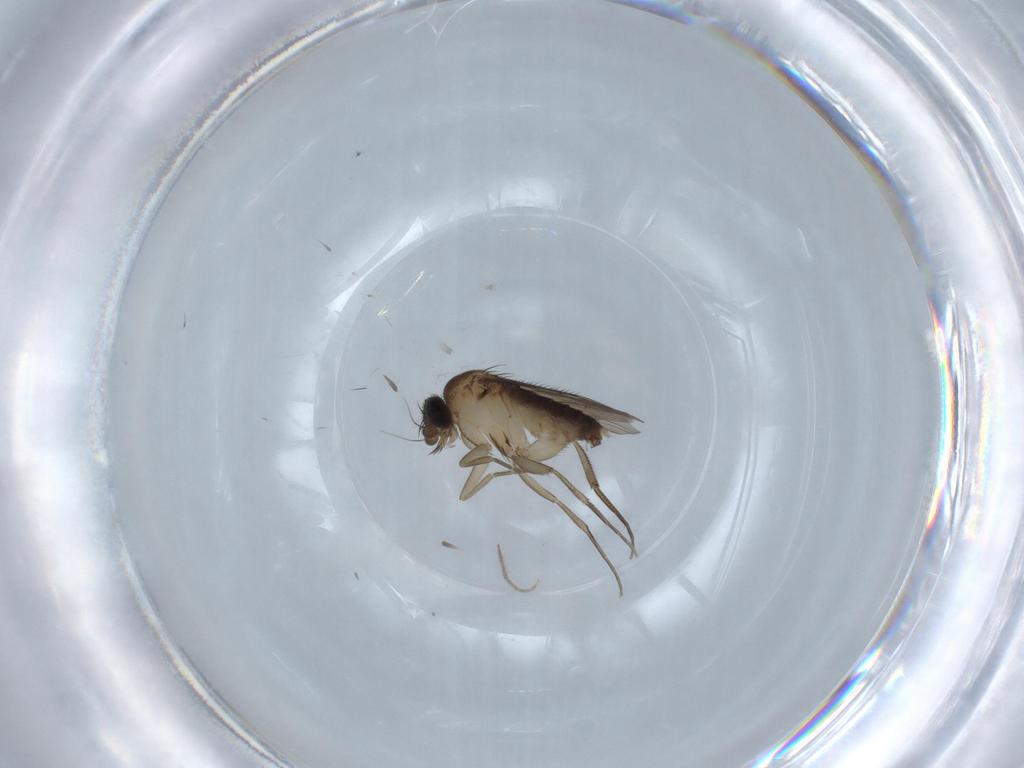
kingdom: Animalia
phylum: Arthropoda
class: Insecta
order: Diptera
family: Phoridae
